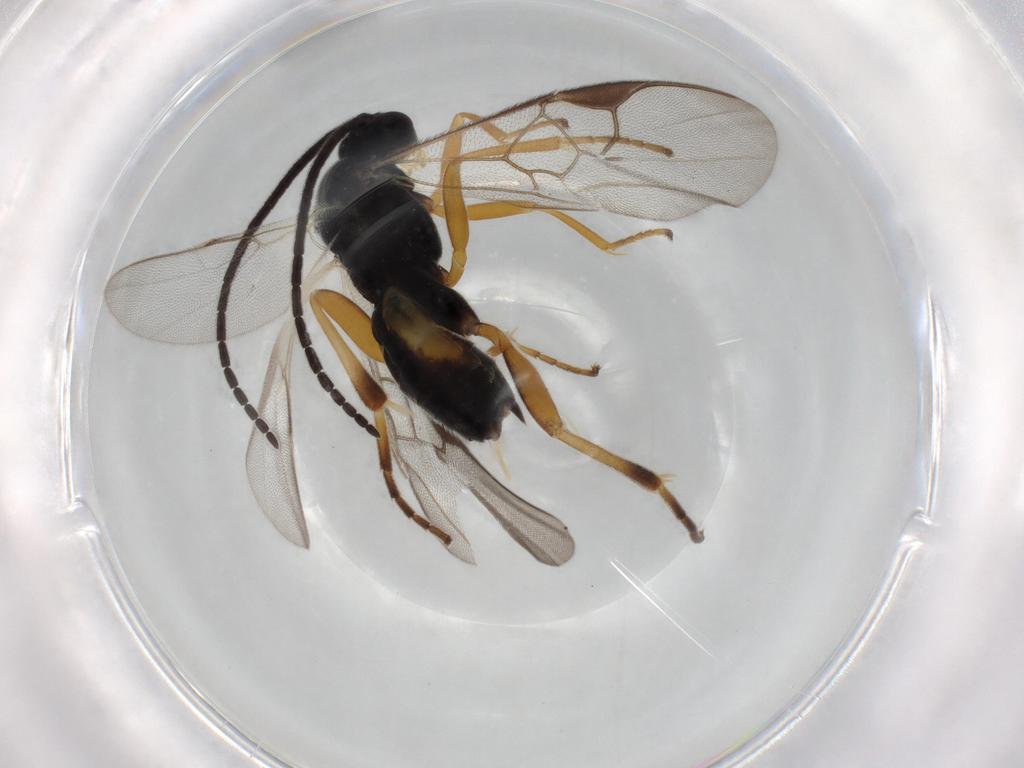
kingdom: Animalia
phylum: Arthropoda
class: Insecta
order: Hymenoptera
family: Braconidae
